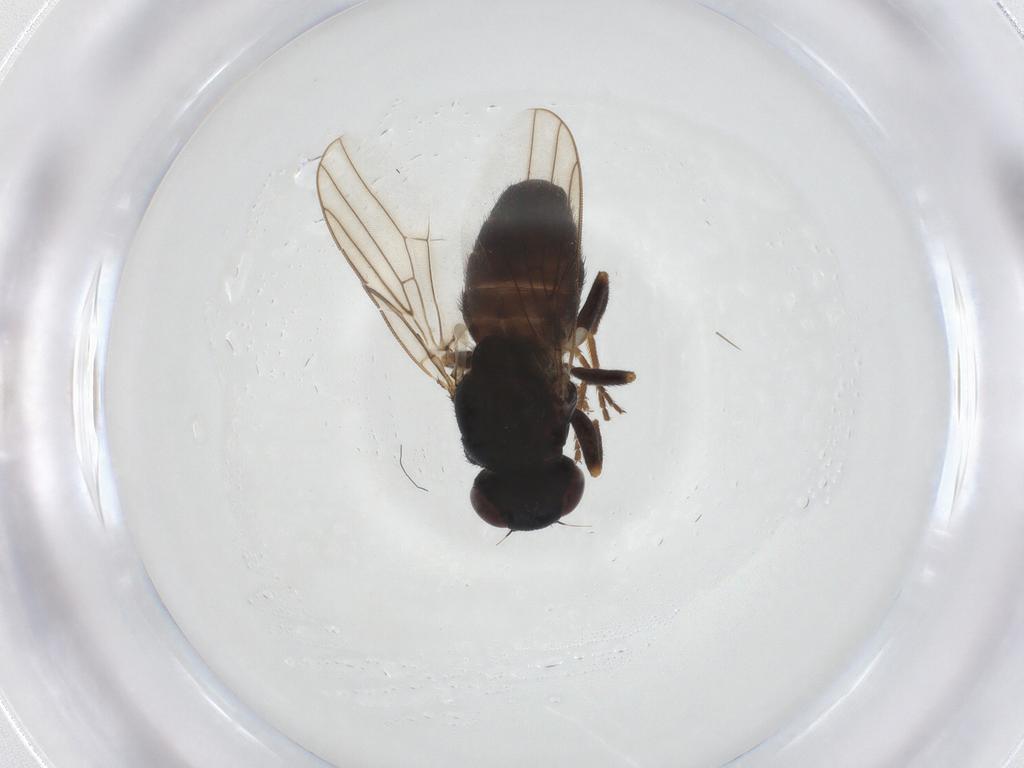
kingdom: Animalia
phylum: Arthropoda
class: Insecta
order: Diptera
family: Chloropidae
